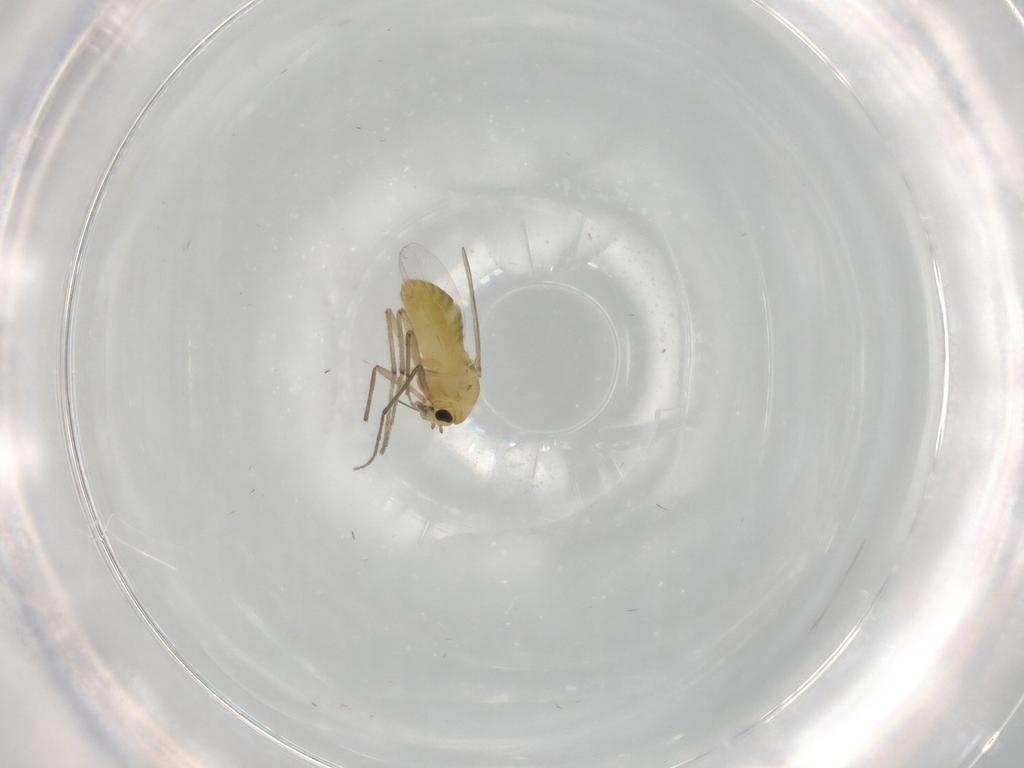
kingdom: Animalia
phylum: Arthropoda
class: Insecta
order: Diptera
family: Chironomidae
